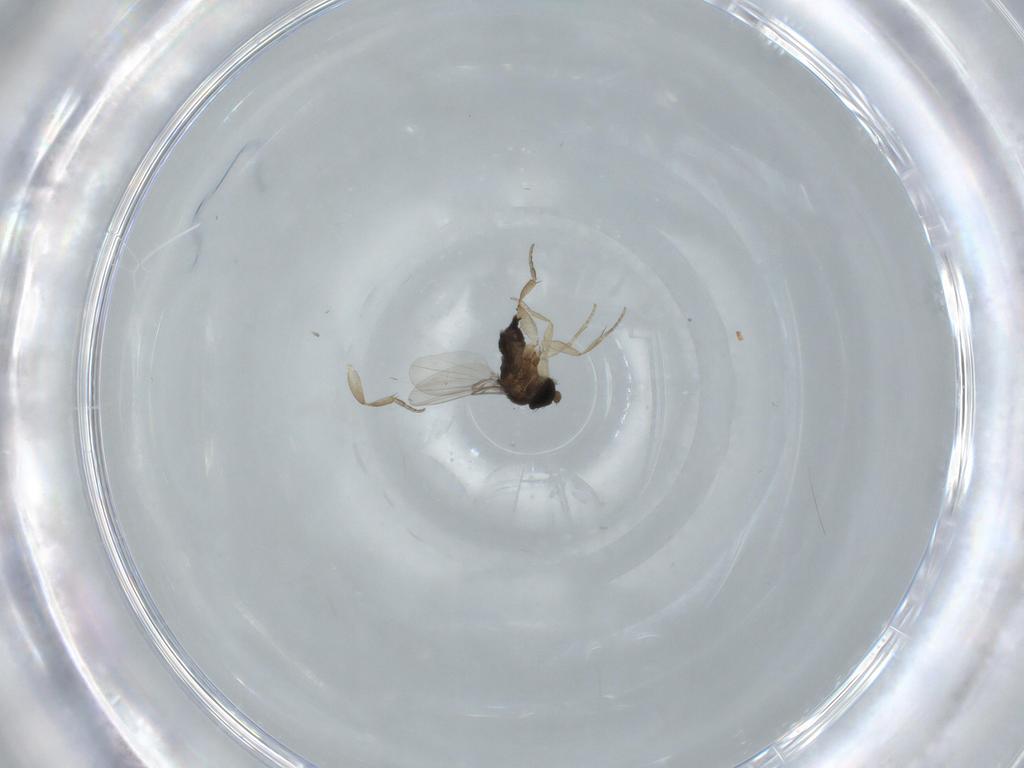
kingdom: Animalia
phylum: Arthropoda
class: Insecta
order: Diptera
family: Phoridae
